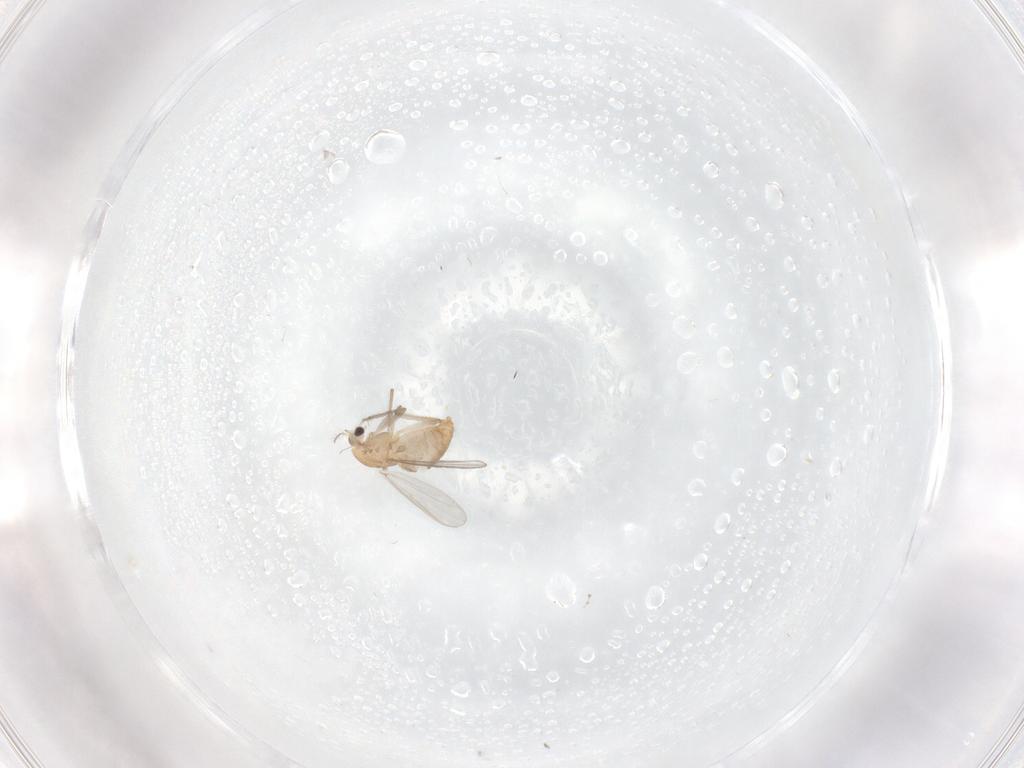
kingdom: Animalia
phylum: Arthropoda
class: Insecta
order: Diptera
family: Chironomidae
